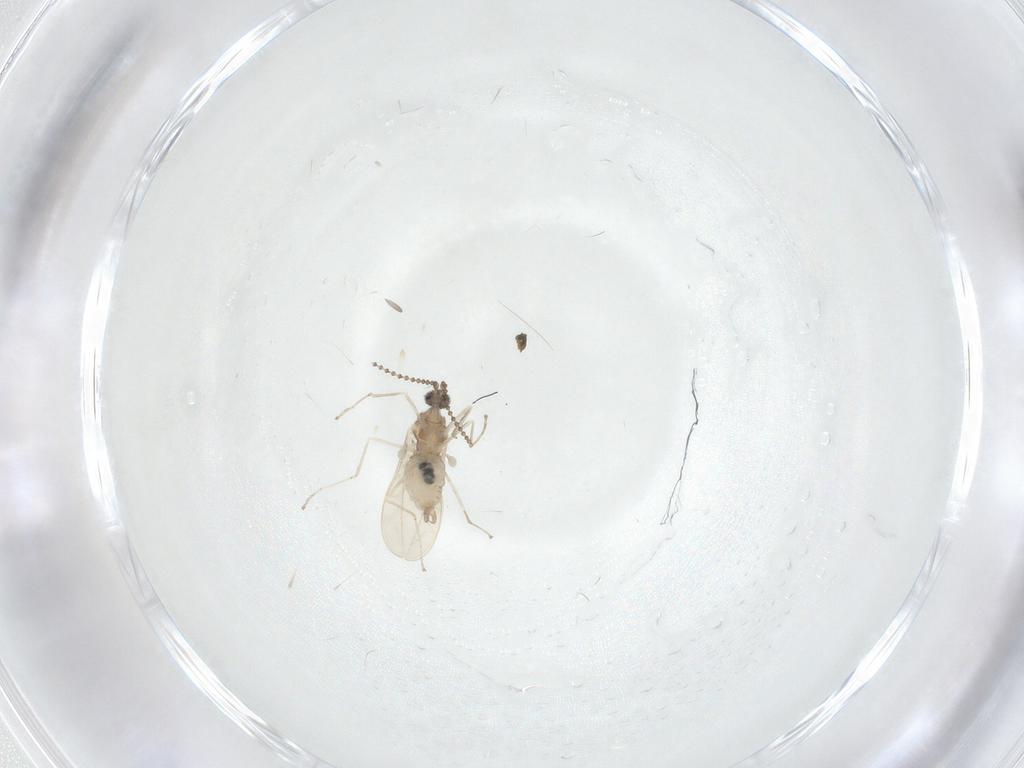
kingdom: Animalia
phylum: Arthropoda
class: Insecta
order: Diptera
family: Cecidomyiidae
